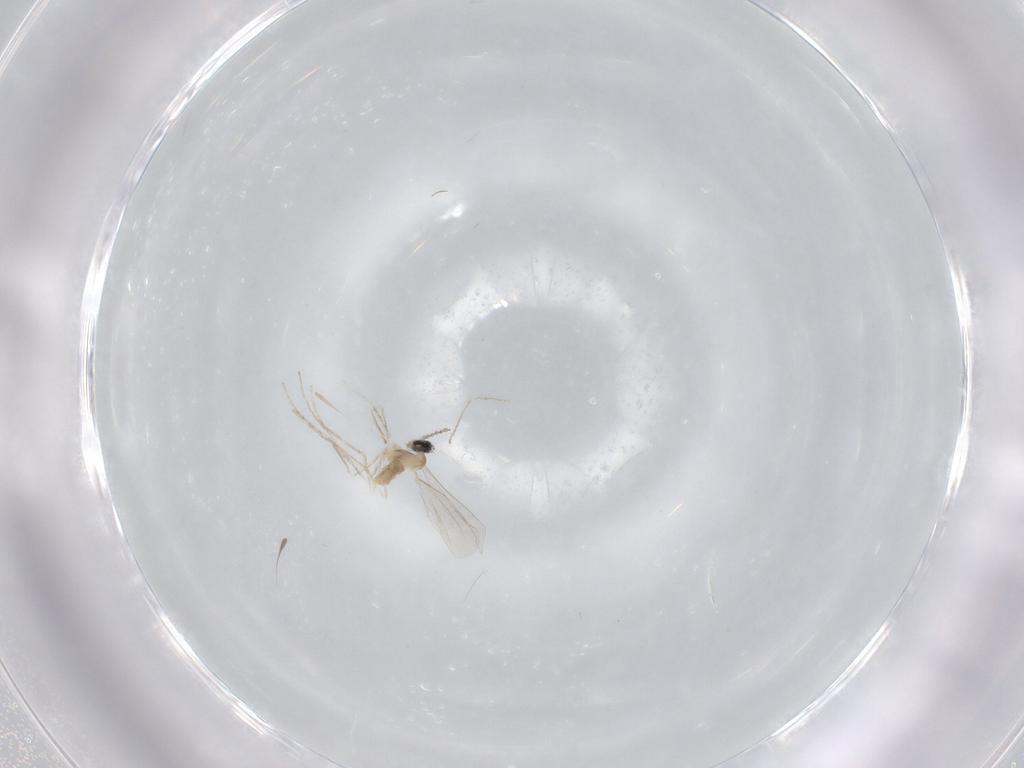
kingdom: Animalia
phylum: Arthropoda
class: Insecta
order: Diptera
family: Cecidomyiidae
